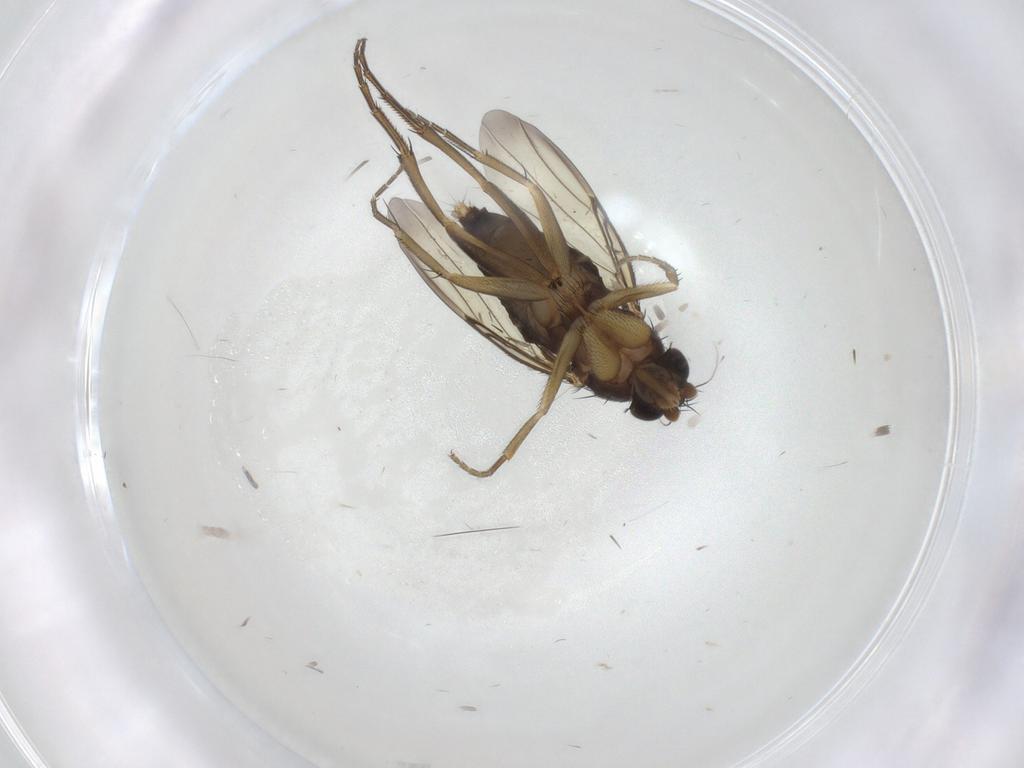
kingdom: Animalia
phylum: Arthropoda
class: Insecta
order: Diptera
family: Phoridae
